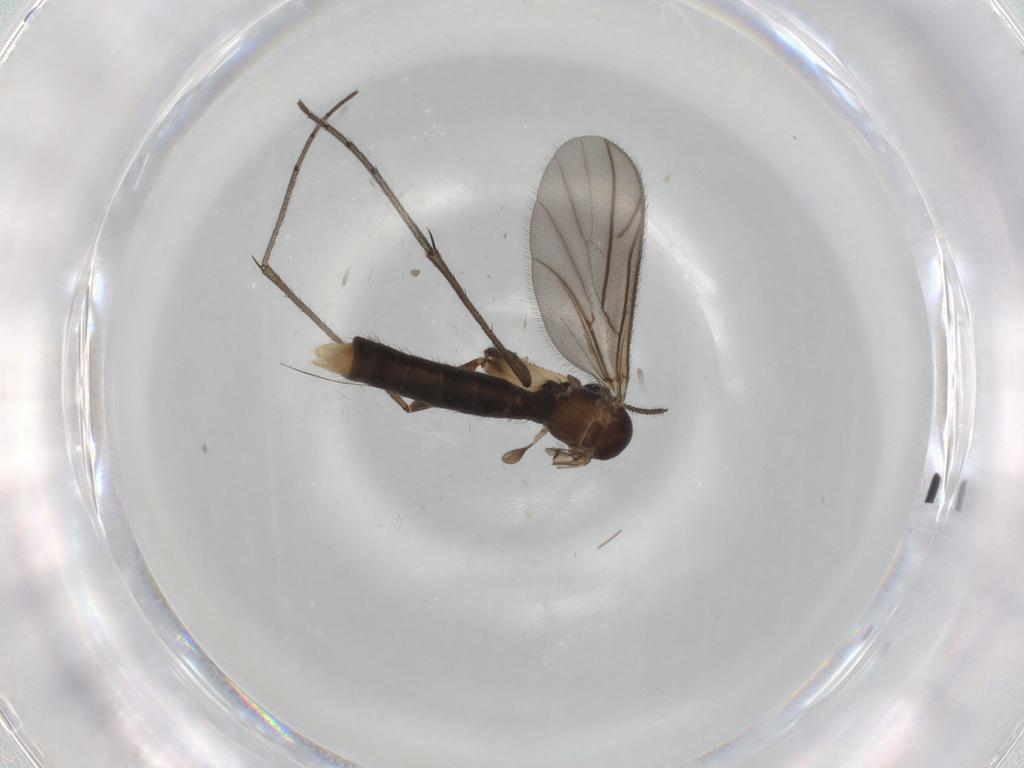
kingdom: Animalia
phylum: Arthropoda
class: Insecta
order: Diptera
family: Ditomyiidae
